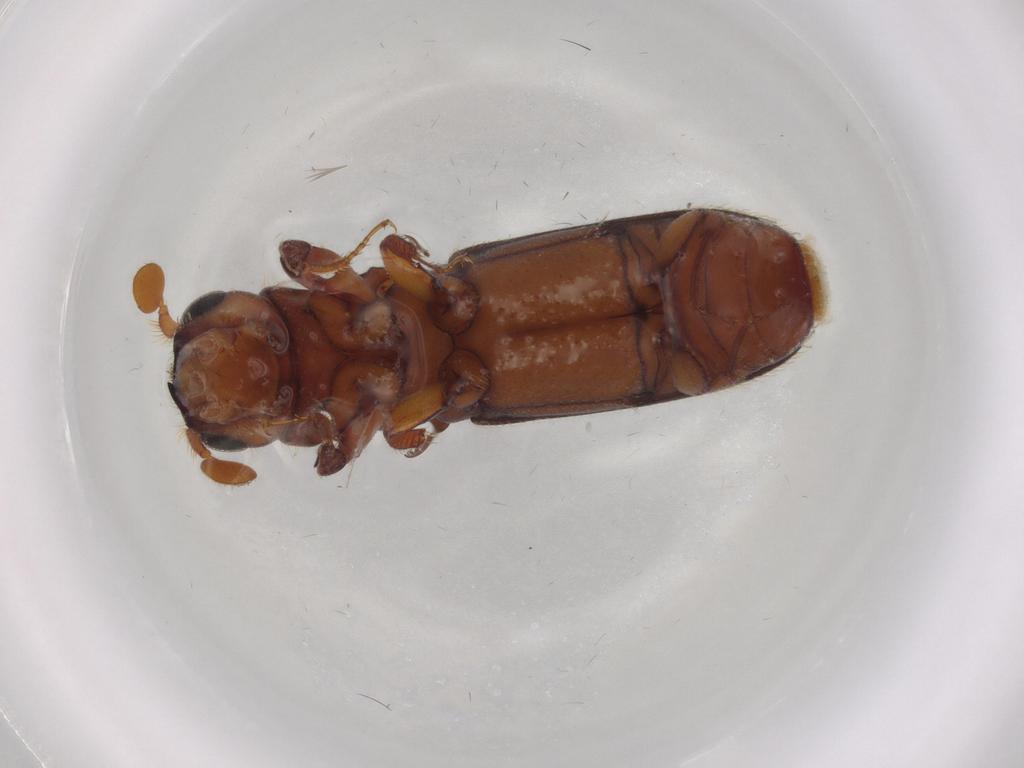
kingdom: Animalia
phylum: Arthropoda
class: Insecta
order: Coleoptera
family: Curculionidae
